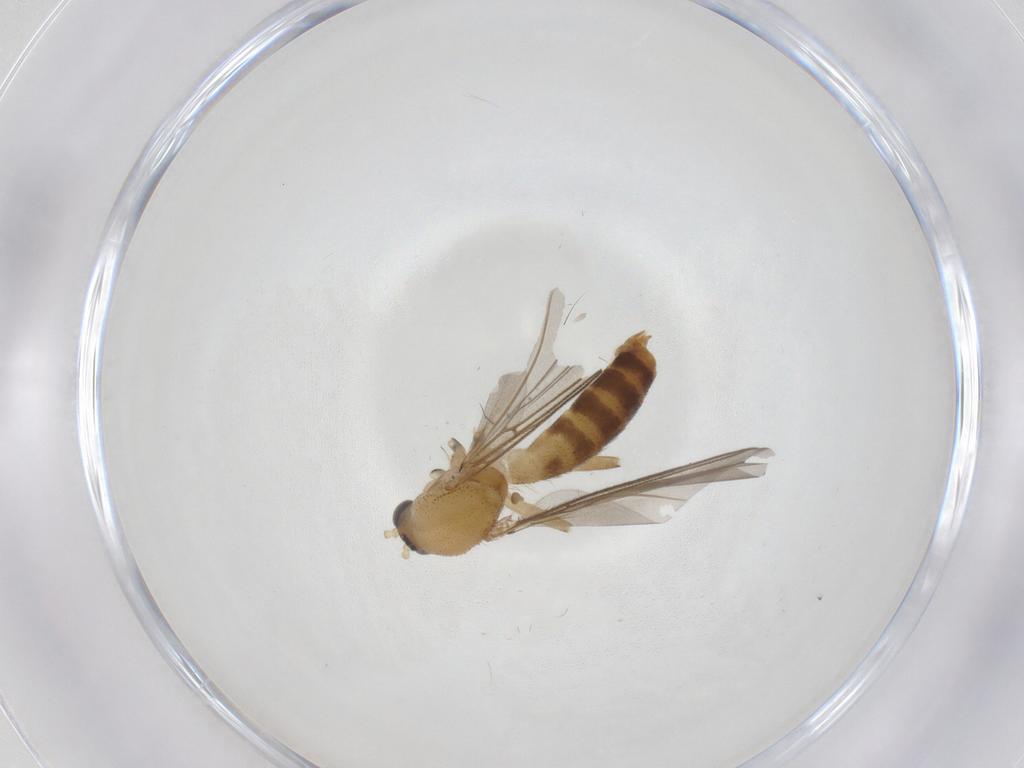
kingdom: Animalia
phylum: Arthropoda
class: Insecta
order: Diptera
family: Mycetophilidae
